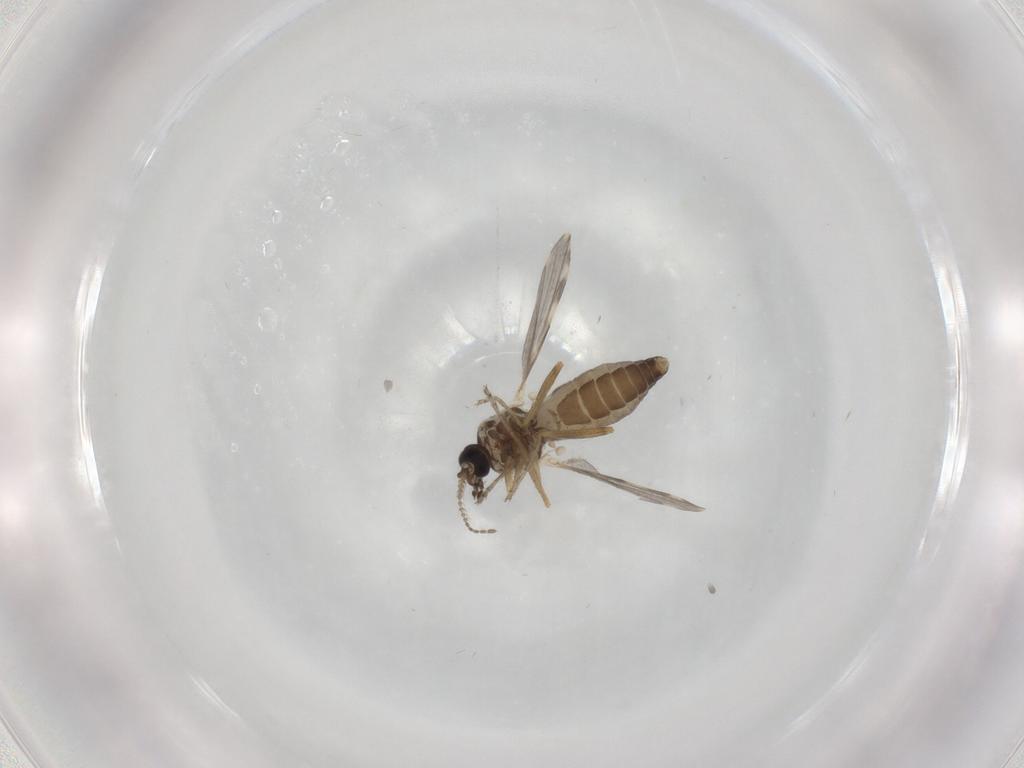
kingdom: Animalia
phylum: Arthropoda
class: Insecta
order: Diptera
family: Ceratopogonidae
